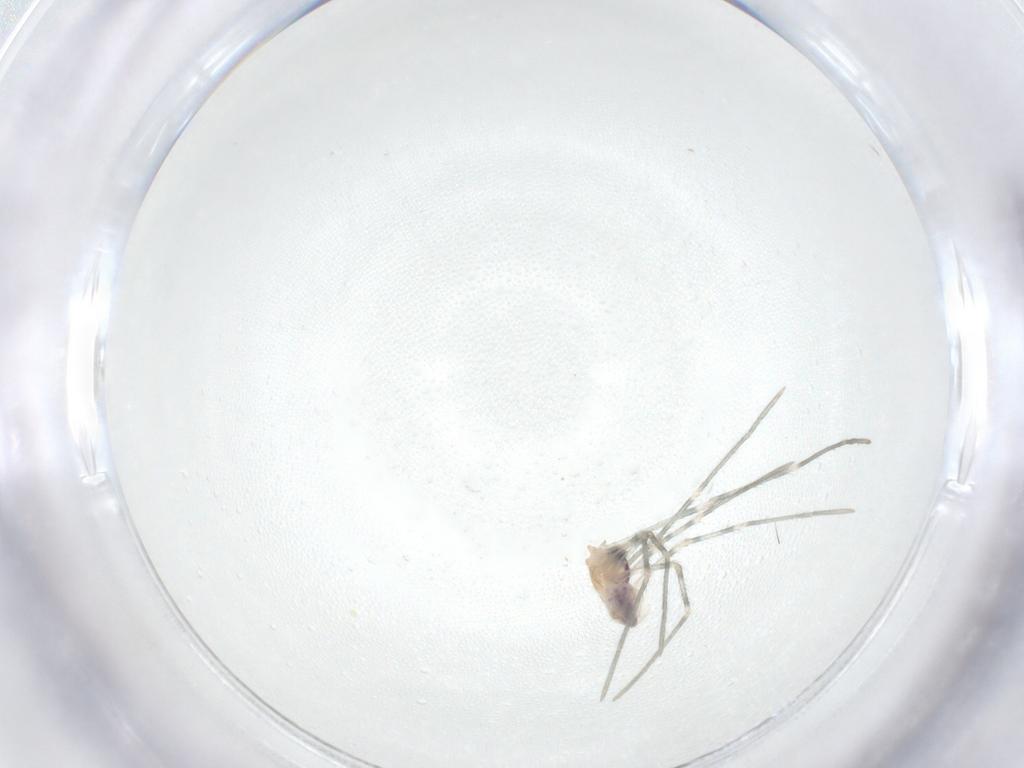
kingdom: Animalia
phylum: Arthropoda
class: Arachnida
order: Araneae
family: Pholcidae
